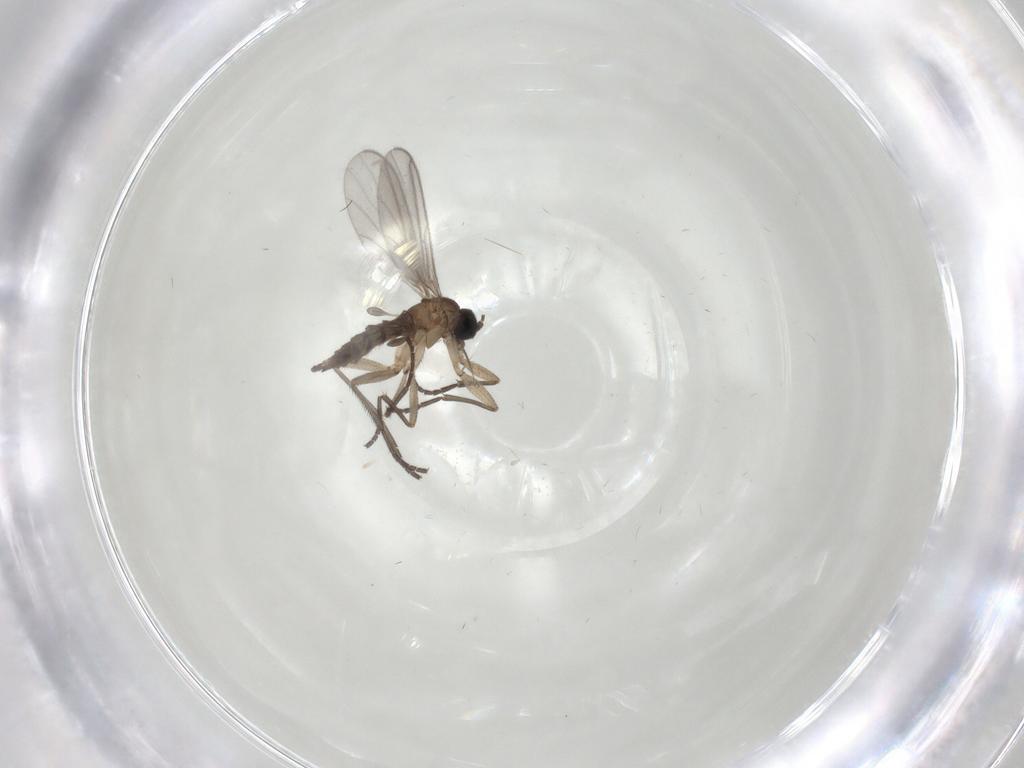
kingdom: Animalia
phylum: Arthropoda
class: Insecta
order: Diptera
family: Sciaridae
